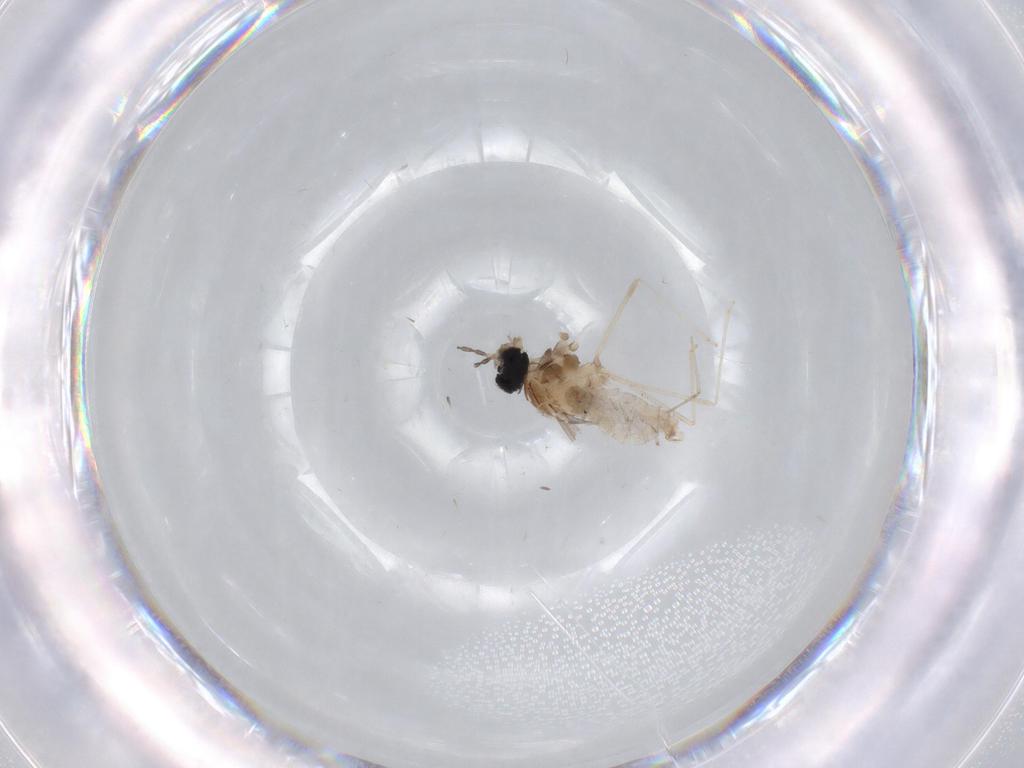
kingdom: Animalia
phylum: Arthropoda
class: Insecta
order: Diptera
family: Cecidomyiidae
